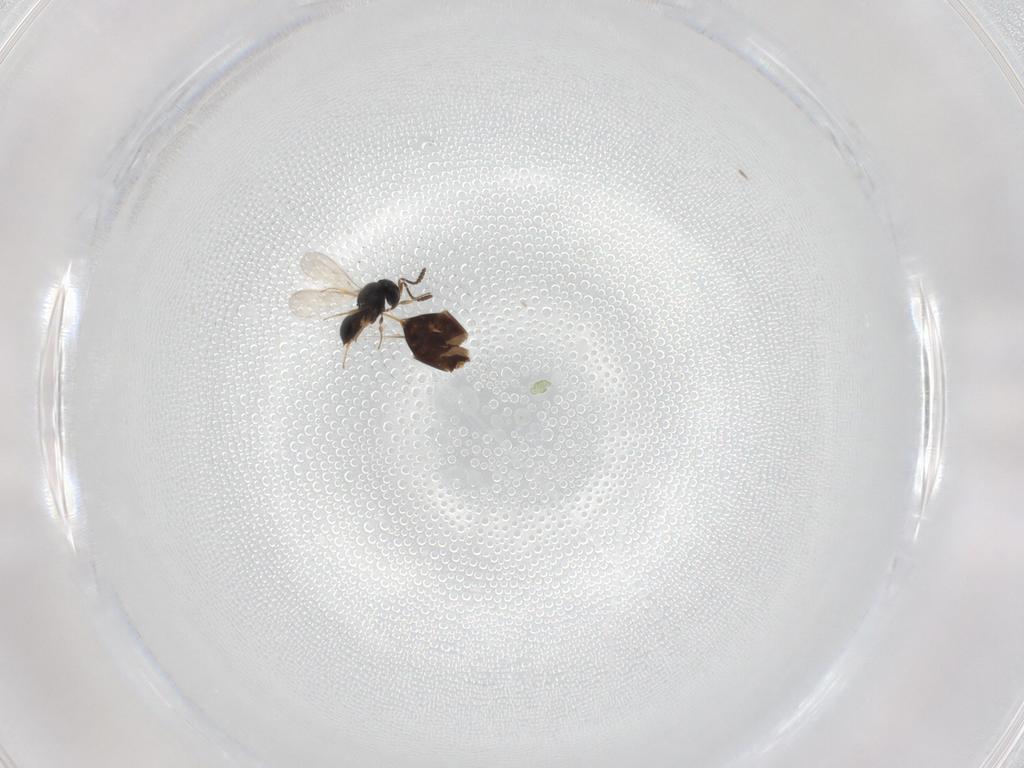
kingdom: Animalia
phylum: Arthropoda
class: Insecta
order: Hymenoptera
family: Scelionidae
